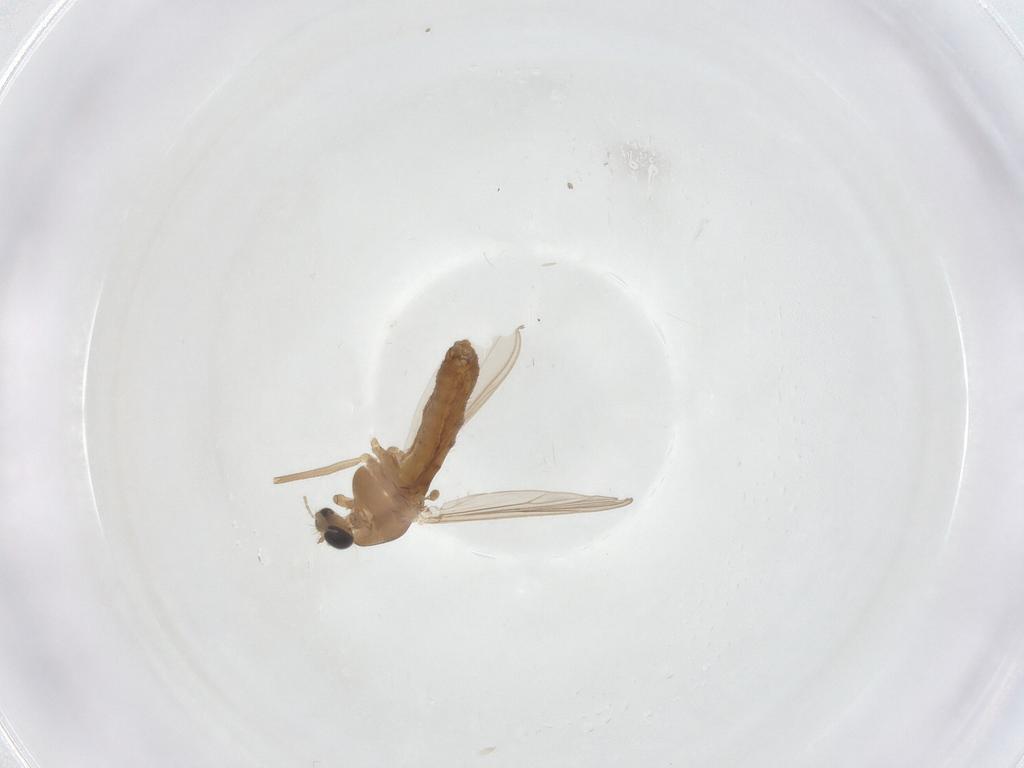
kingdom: Animalia
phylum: Arthropoda
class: Insecta
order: Diptera
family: Chironomidae
